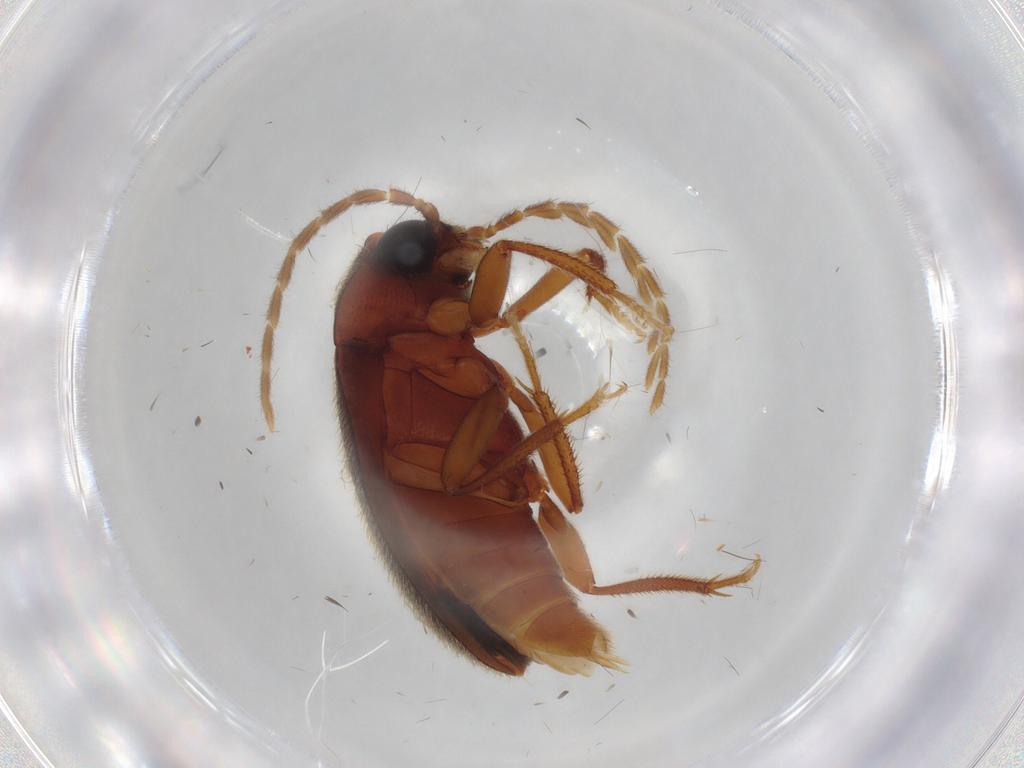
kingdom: Animalia
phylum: Arthropoda
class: Insecta
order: Coleoptera
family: Ptilodactylidae
